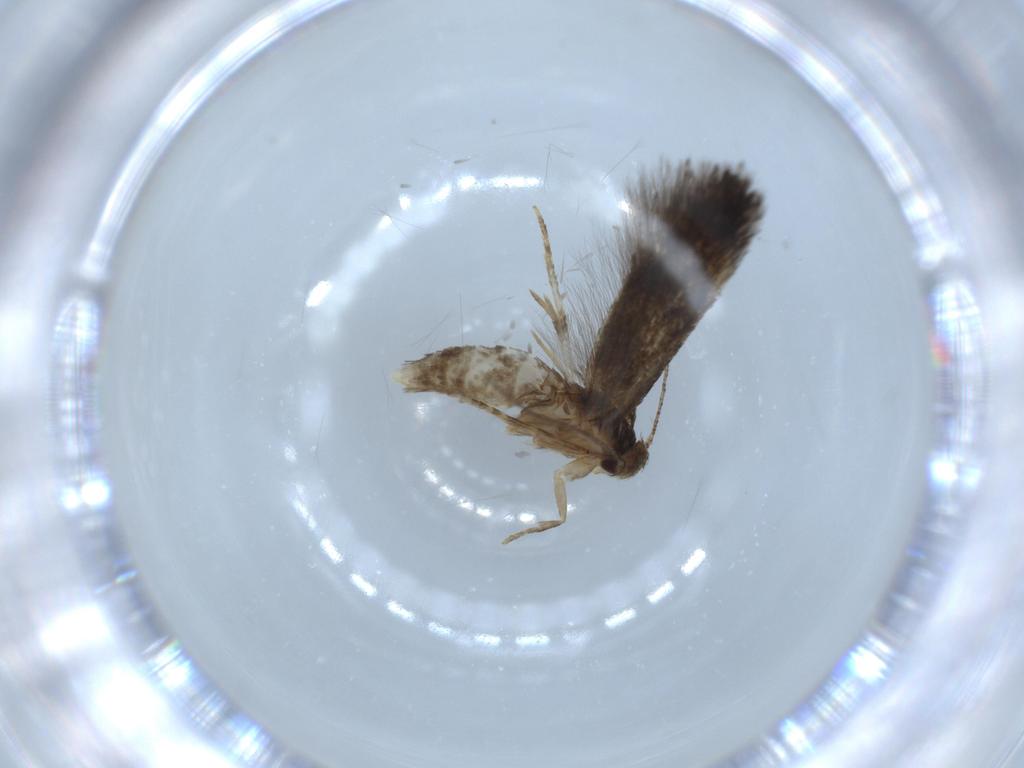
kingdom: Animalia
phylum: Arthropoda
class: Insecta
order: Lepidoptera
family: Gelechiidae
